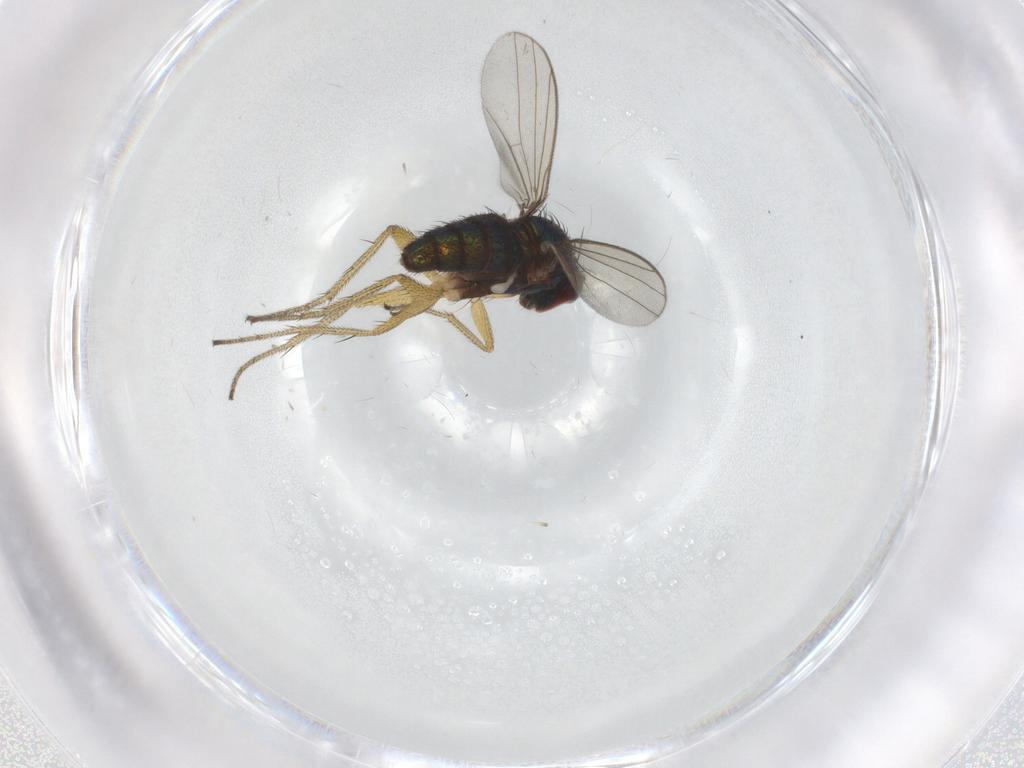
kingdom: Animalia
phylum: Arthropoda
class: Insecta
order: Diptera
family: Dolichopodidae
